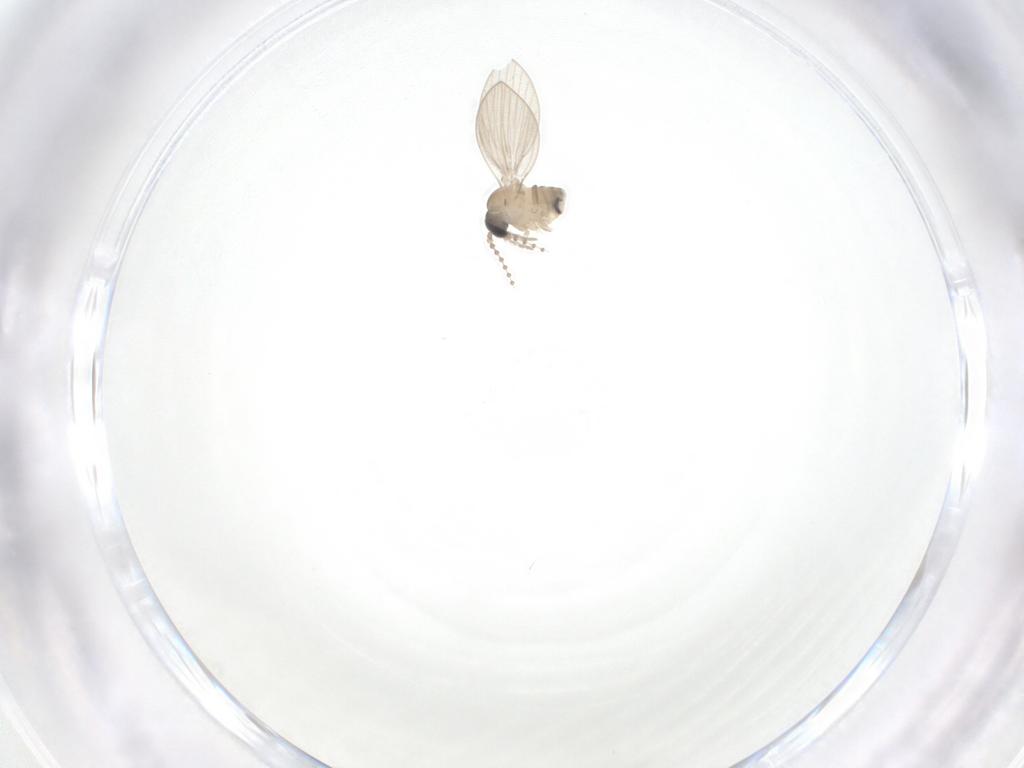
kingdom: Animalia
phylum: Arthropoda
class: Insecta
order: Diptera
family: Psychodidae
